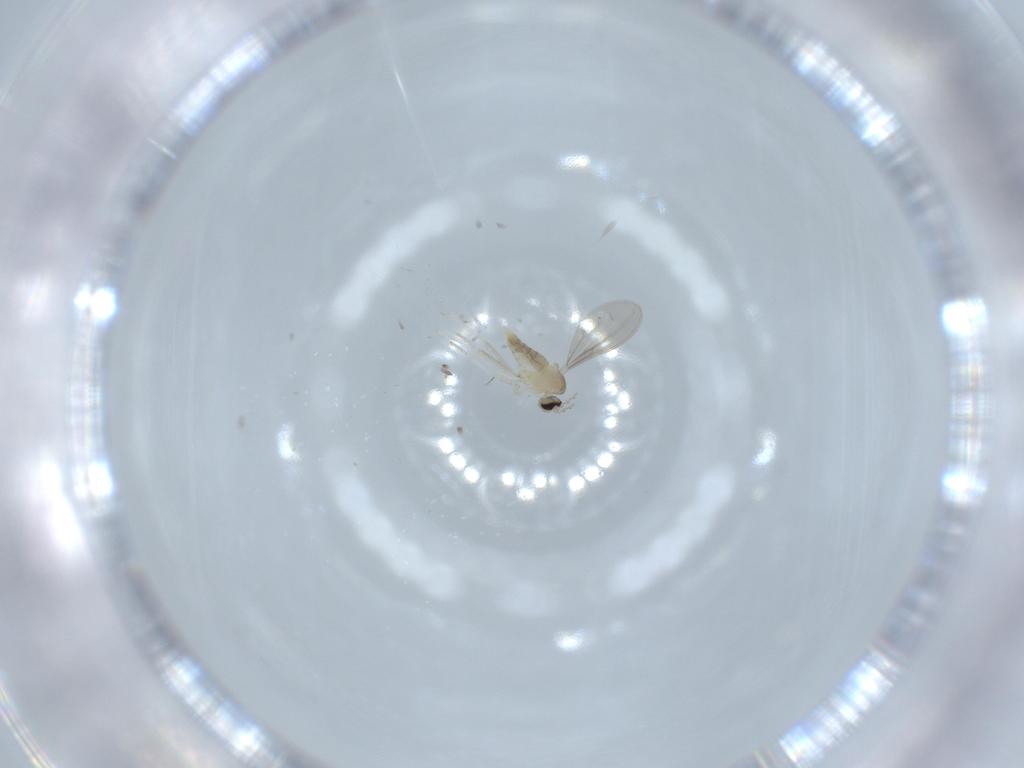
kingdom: Animalia
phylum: Arthropoda
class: Insecta
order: Diptera
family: Cecidomyiidae
